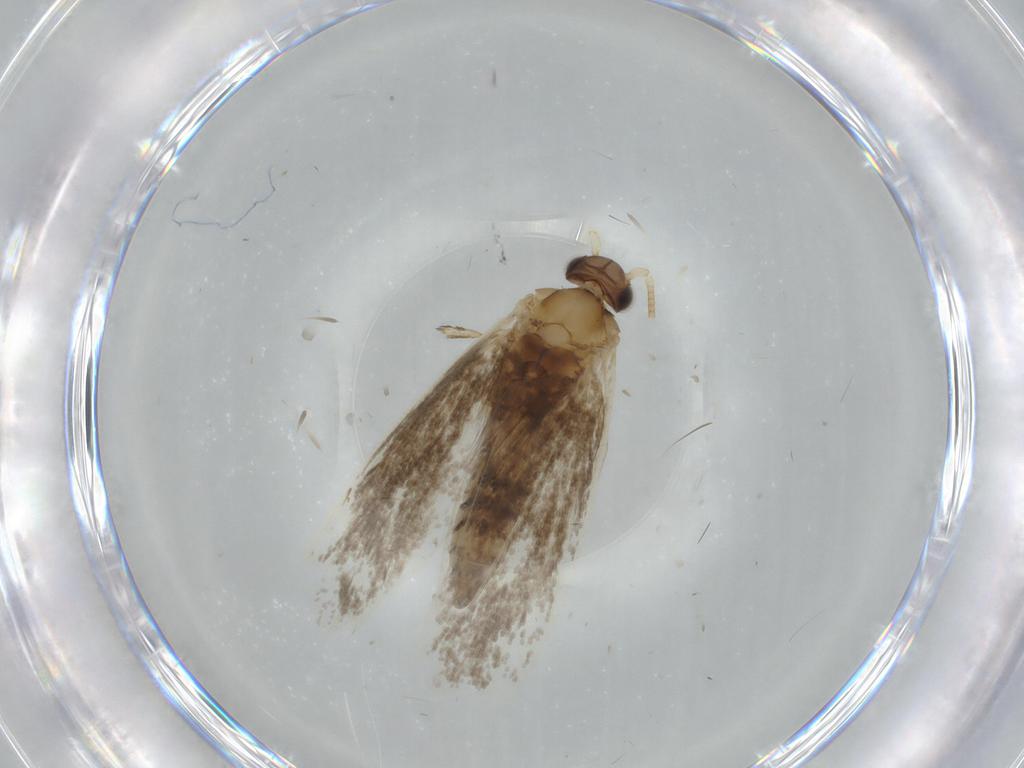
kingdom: Animalia
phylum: Arthropoda
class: Insecta
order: Lepidoptera
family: Tineidae
